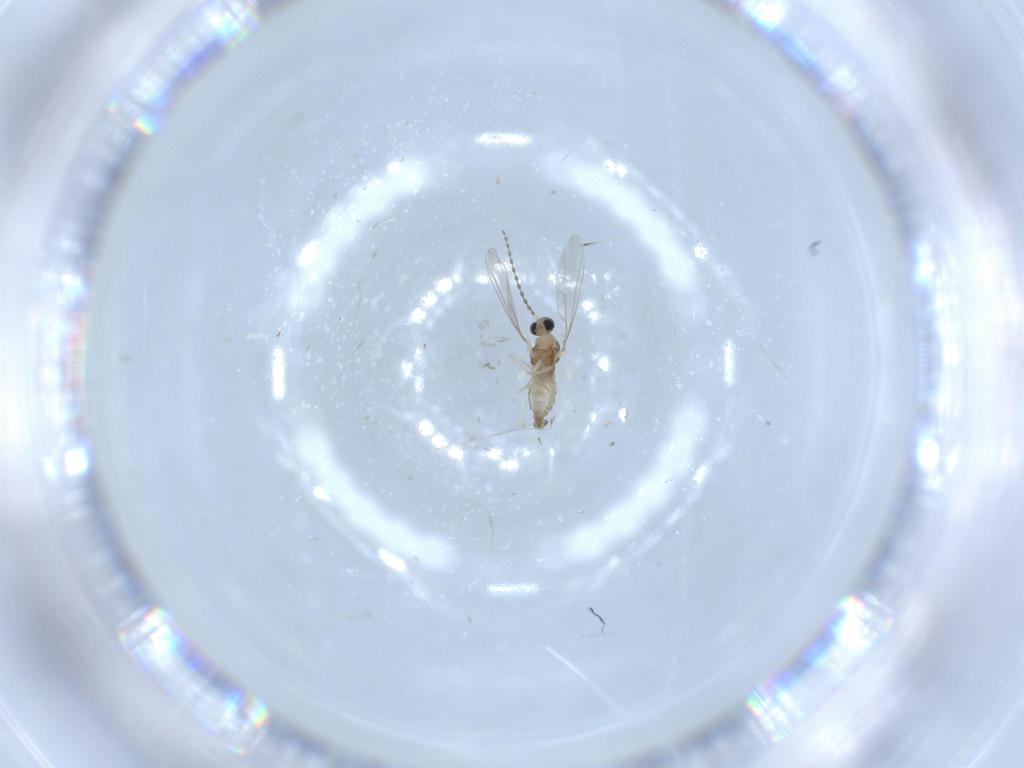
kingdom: Animalia
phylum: Arthropoda
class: Insecta
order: Diptera
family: Cecidomyiidae
